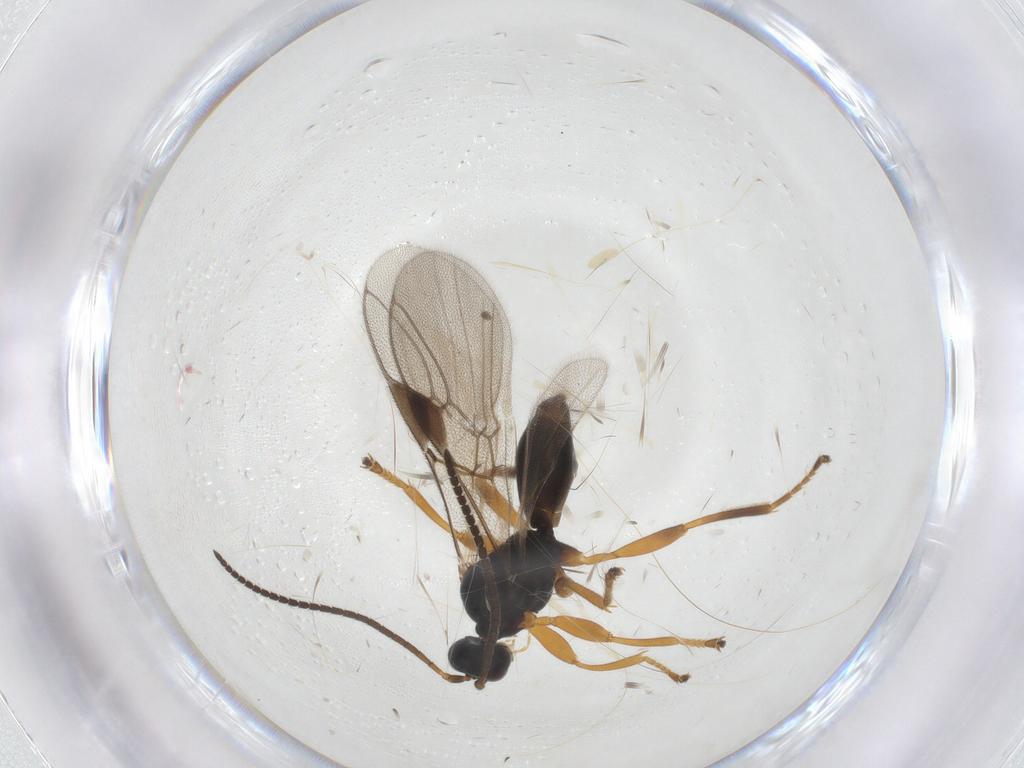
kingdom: Animalia
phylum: Arthropoda
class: Insecta
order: Hymenoptera
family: Braconidae
